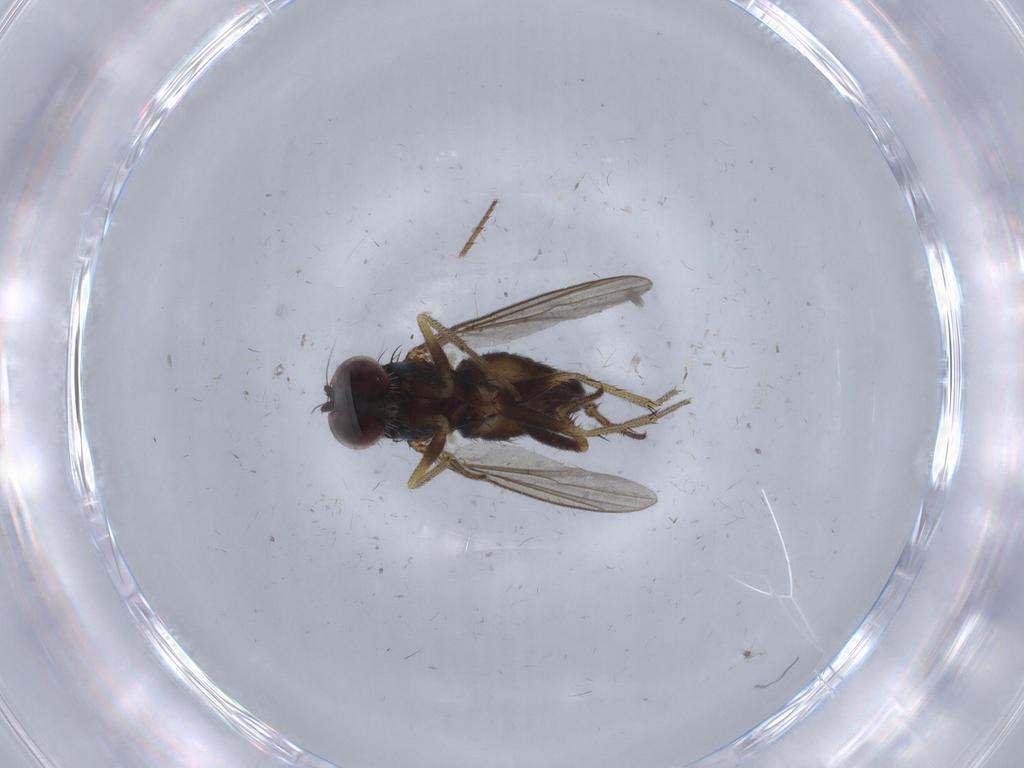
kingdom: Animalia
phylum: Arthropoda
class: Insecta
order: Diptera
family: Dolichopodidae
